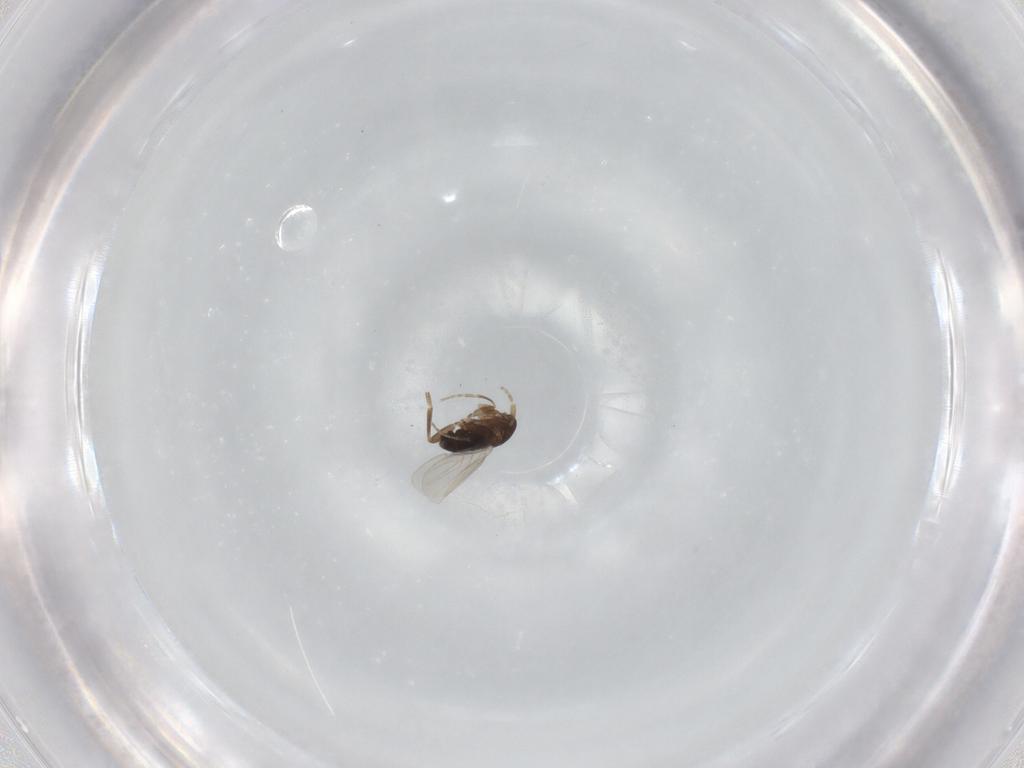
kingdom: Animalia
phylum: Arthropoda
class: Insecta
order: Diptera
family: Phoridae
